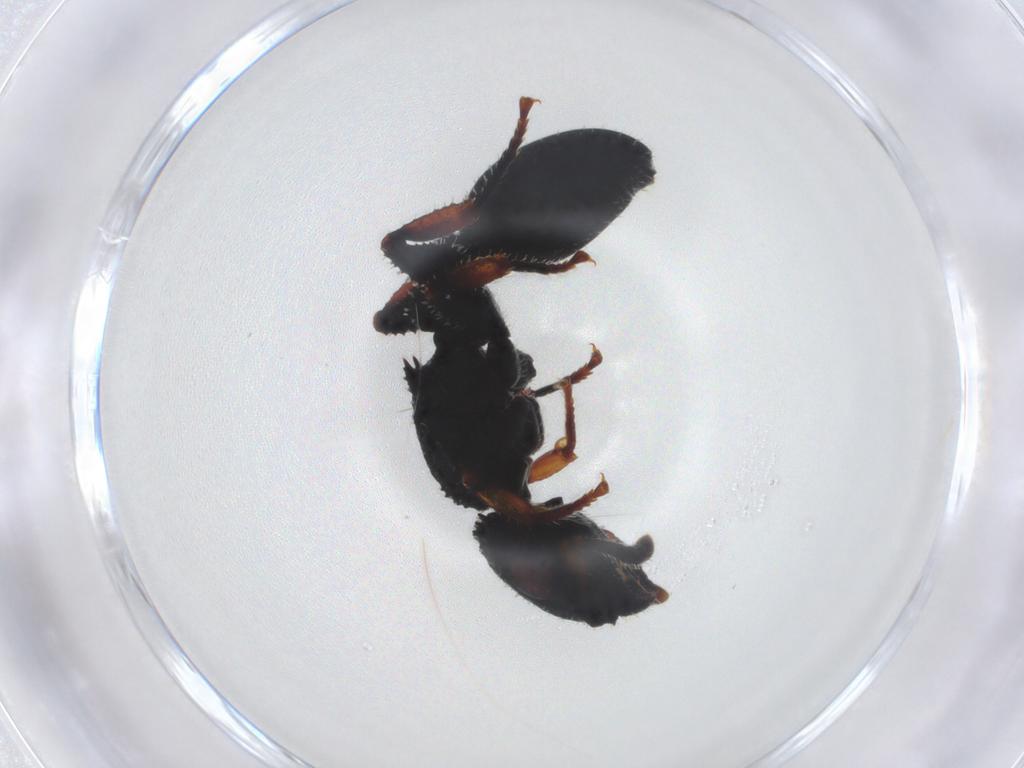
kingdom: Animalia
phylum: Arthropoda
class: Insecta
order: Hymenoptera
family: Formicidae
